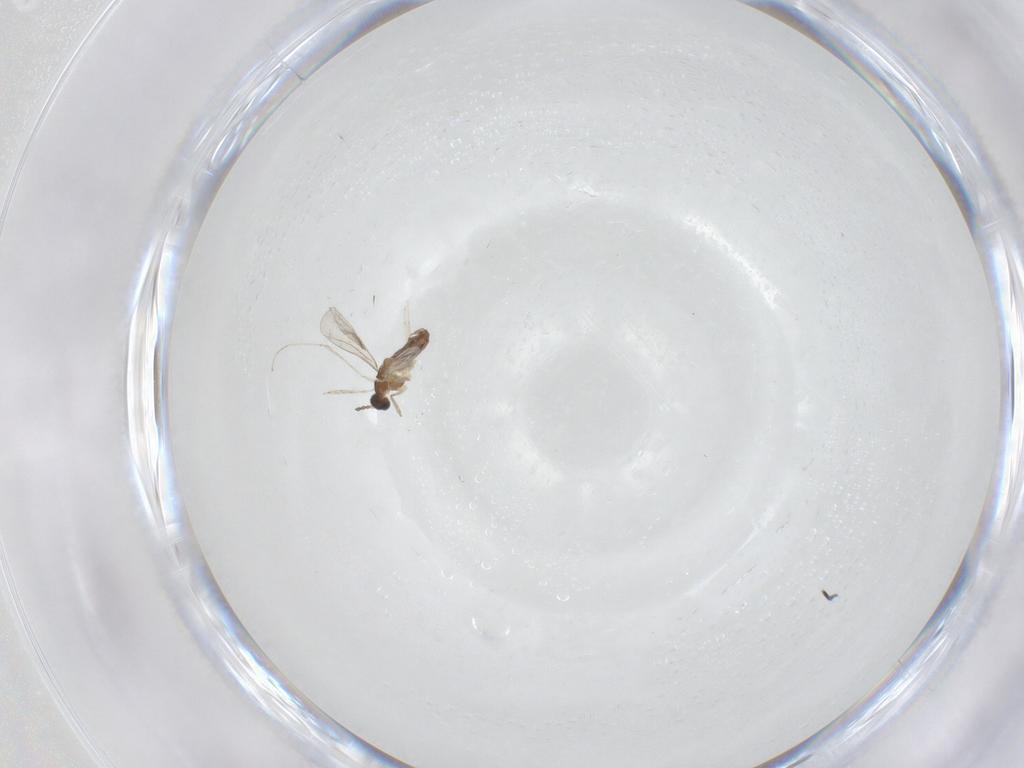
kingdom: Animalia
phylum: Arthropoda
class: Insecta
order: Diptera
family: Cecidomyiidae
